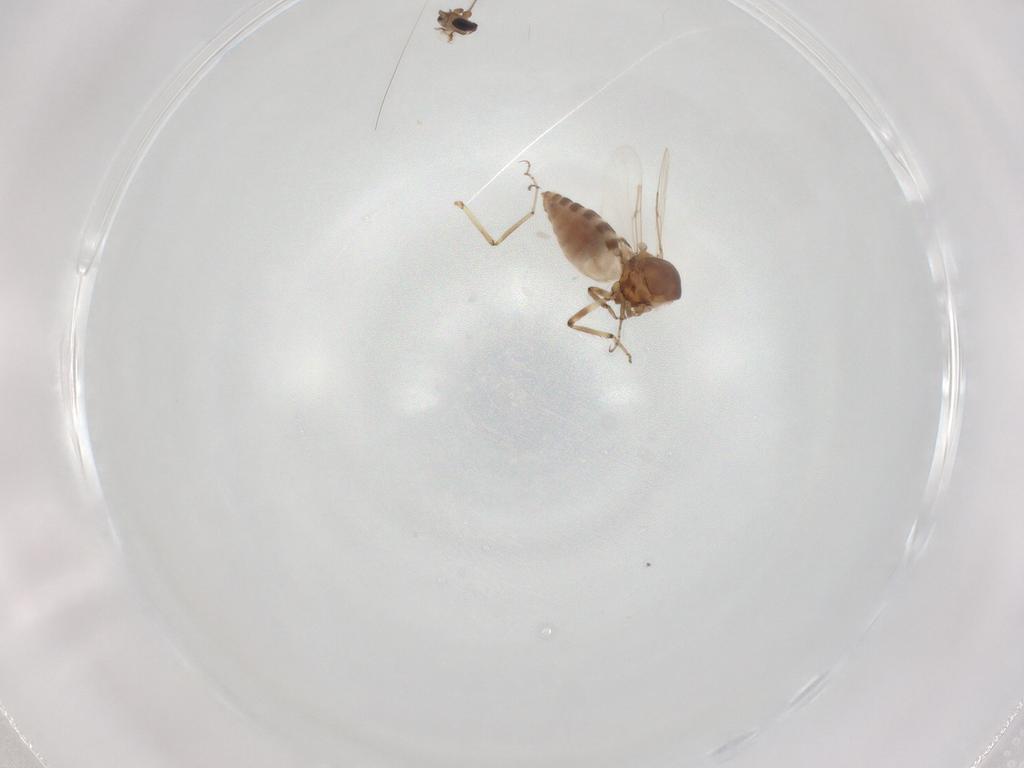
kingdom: Animalia
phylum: Arthropoda
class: Insecta
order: Diptera
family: Ceratopogonidae
